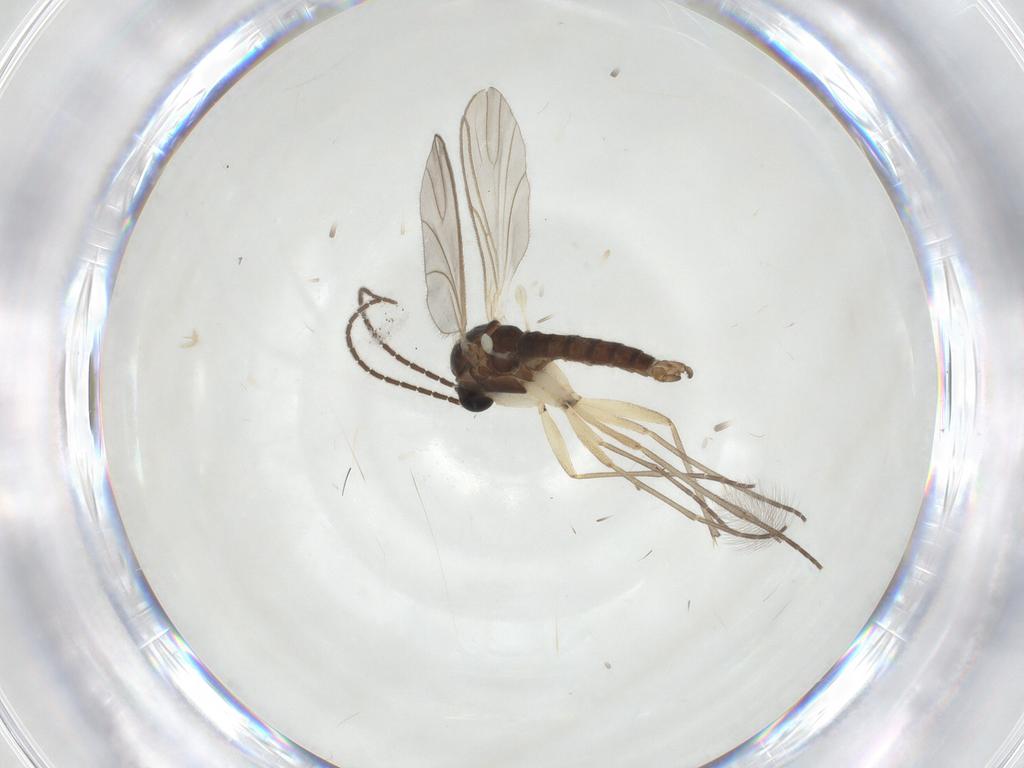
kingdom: Animalia
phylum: Arthropoda
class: Insecta
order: Diptera
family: Sciaridae
